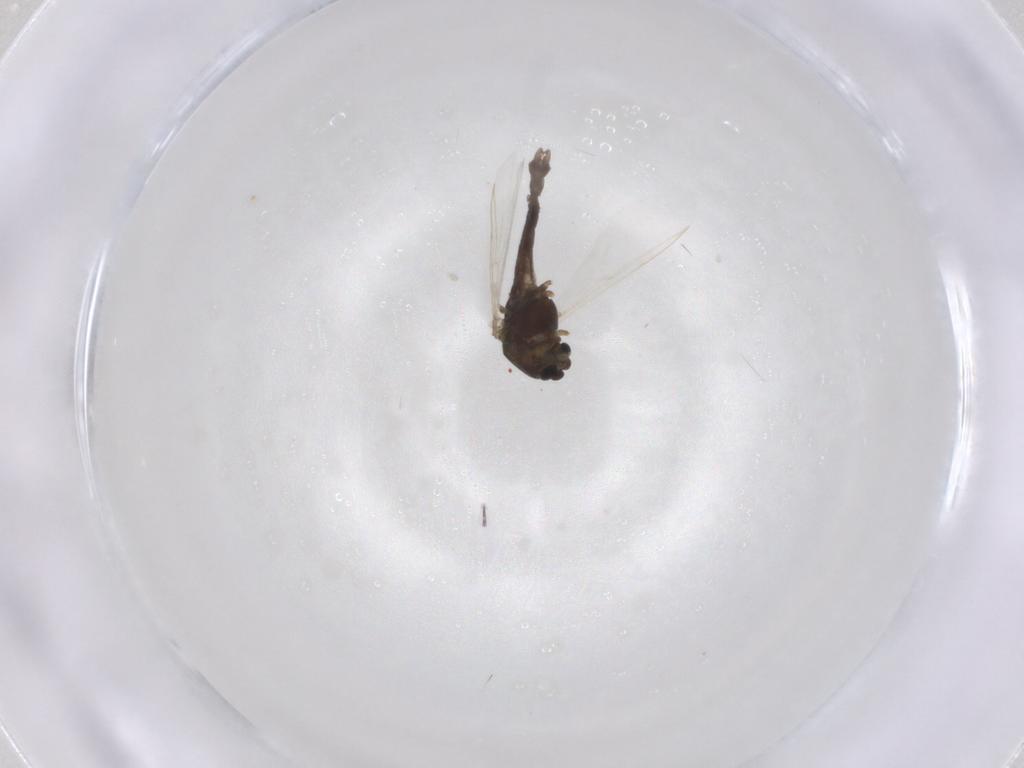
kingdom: Animalia
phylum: Arthropoda
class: Insecta
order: Diptera
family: Chironomidae
